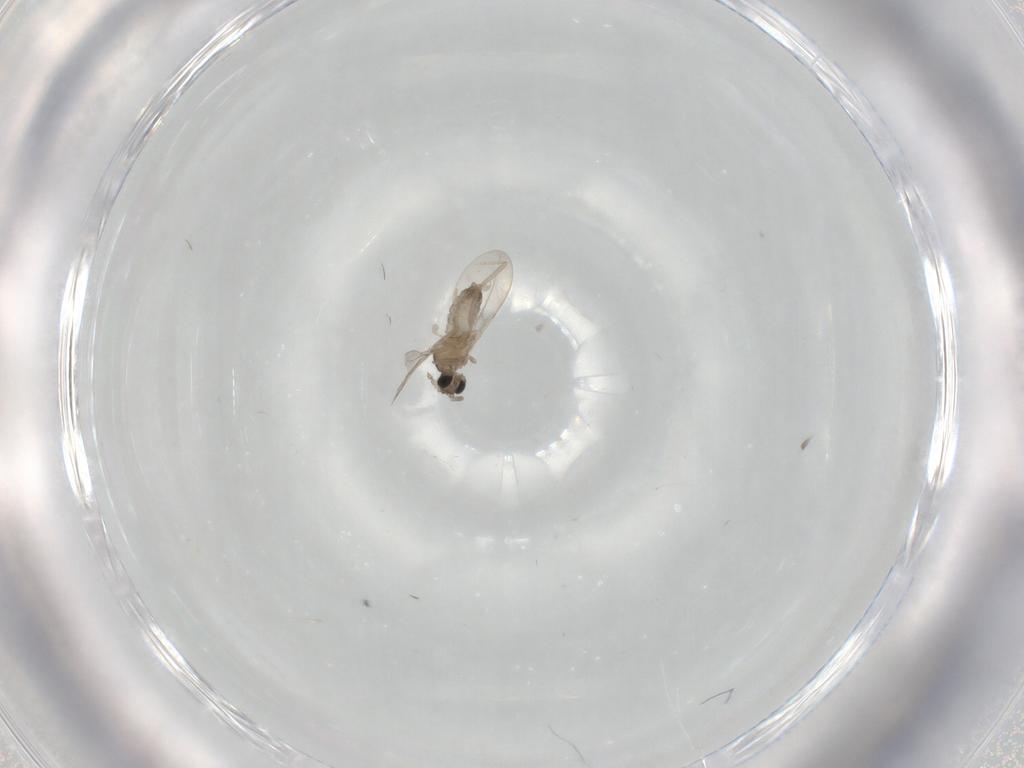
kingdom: Animalia
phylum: Arthropoda
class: Insecta
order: Diptera
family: Cecidomyiidae
